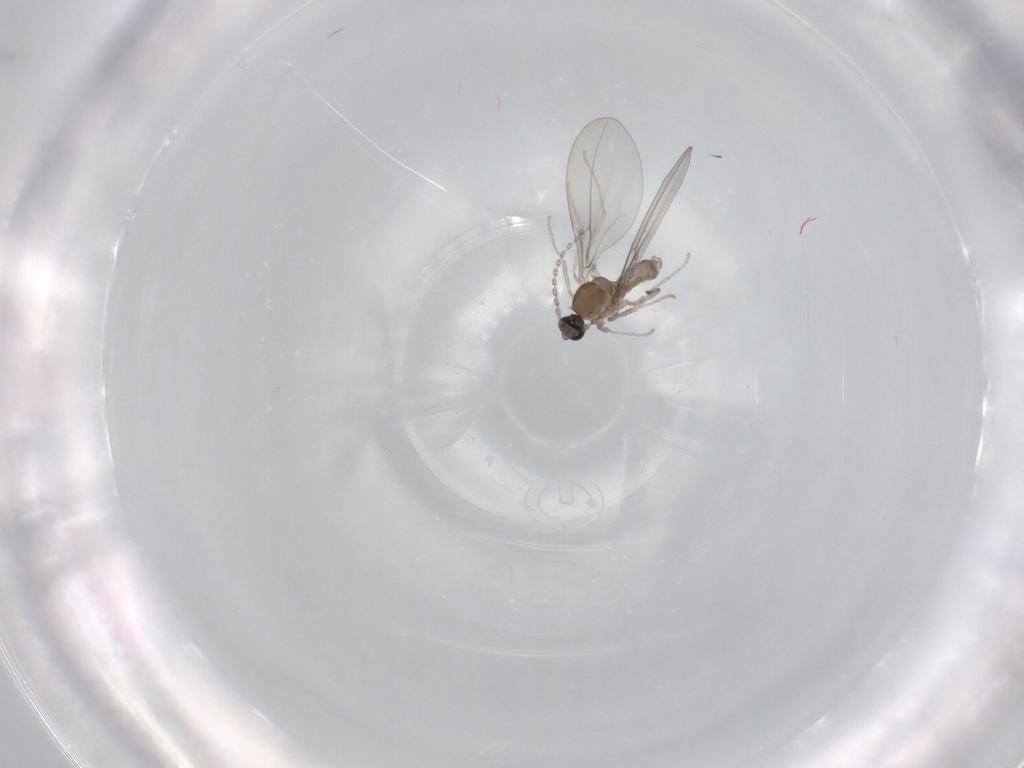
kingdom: Animalia
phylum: Arthropoda
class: Insecta
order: Diptera
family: Cecidomyiidae
